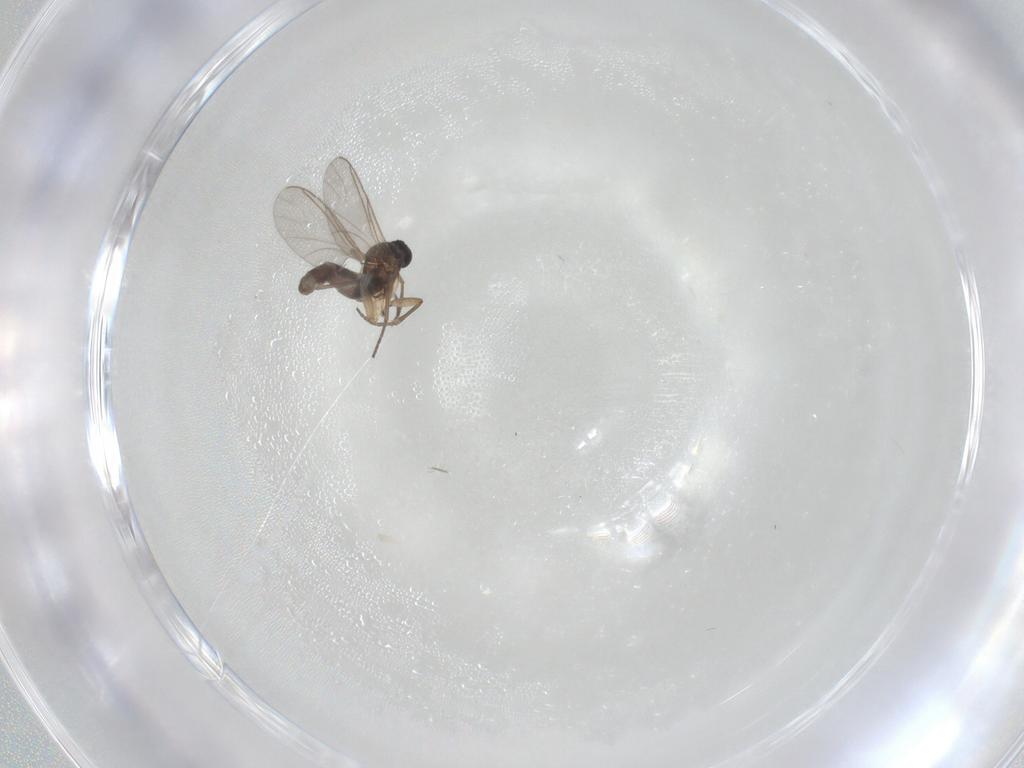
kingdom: Animalia
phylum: Arthropoda
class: Insecta
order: Diptera
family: Sciaridae
